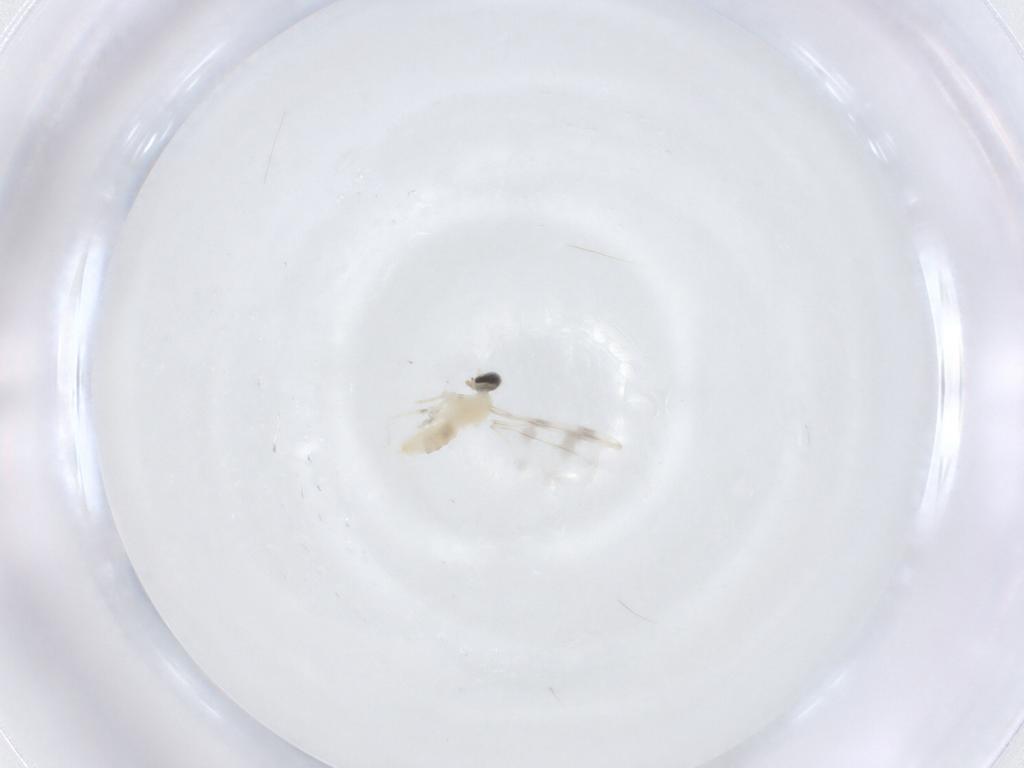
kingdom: Animalia
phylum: Arthropoda
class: Insecta
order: Diptera
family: Cecidomyiidae
